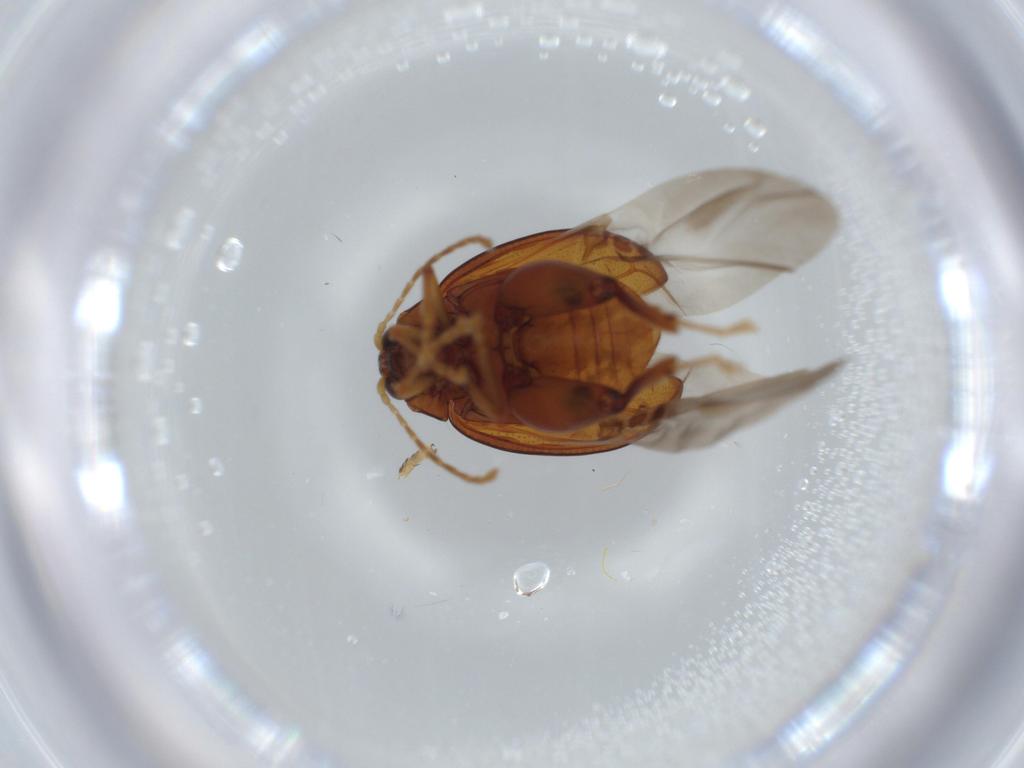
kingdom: Animalia
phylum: Arthropoda
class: Insecta
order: Coleoptera
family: Chrysomelidae
